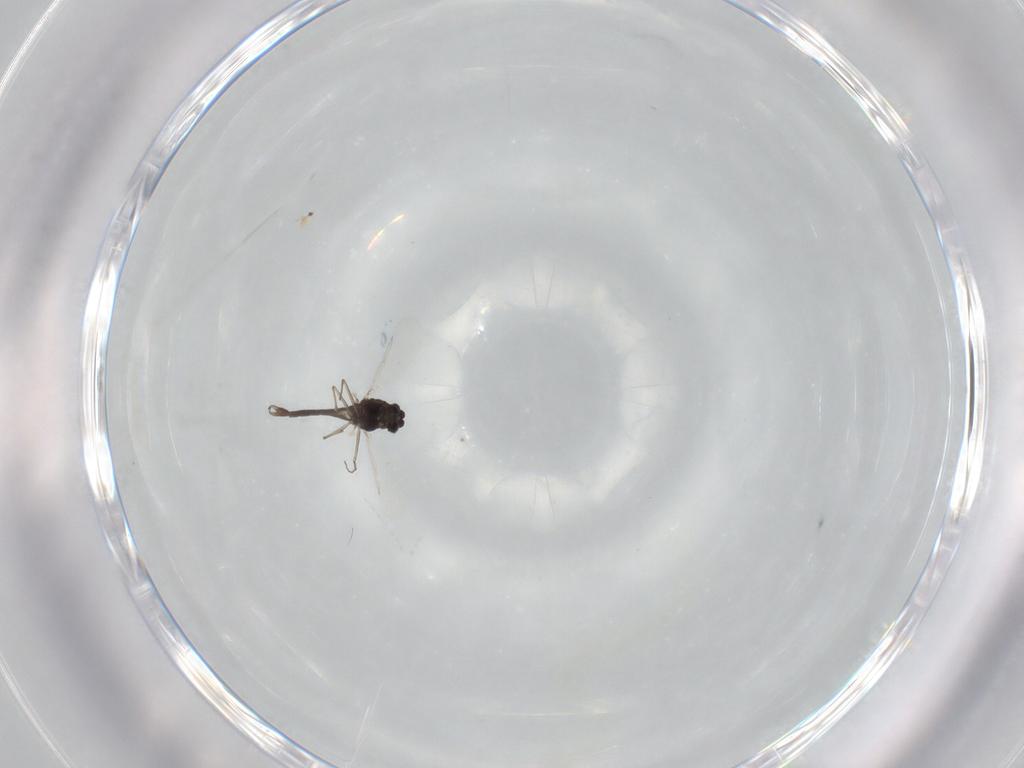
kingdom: Animalia
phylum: Arthropoda
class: Insecta
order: Diptera
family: Chironomidae
